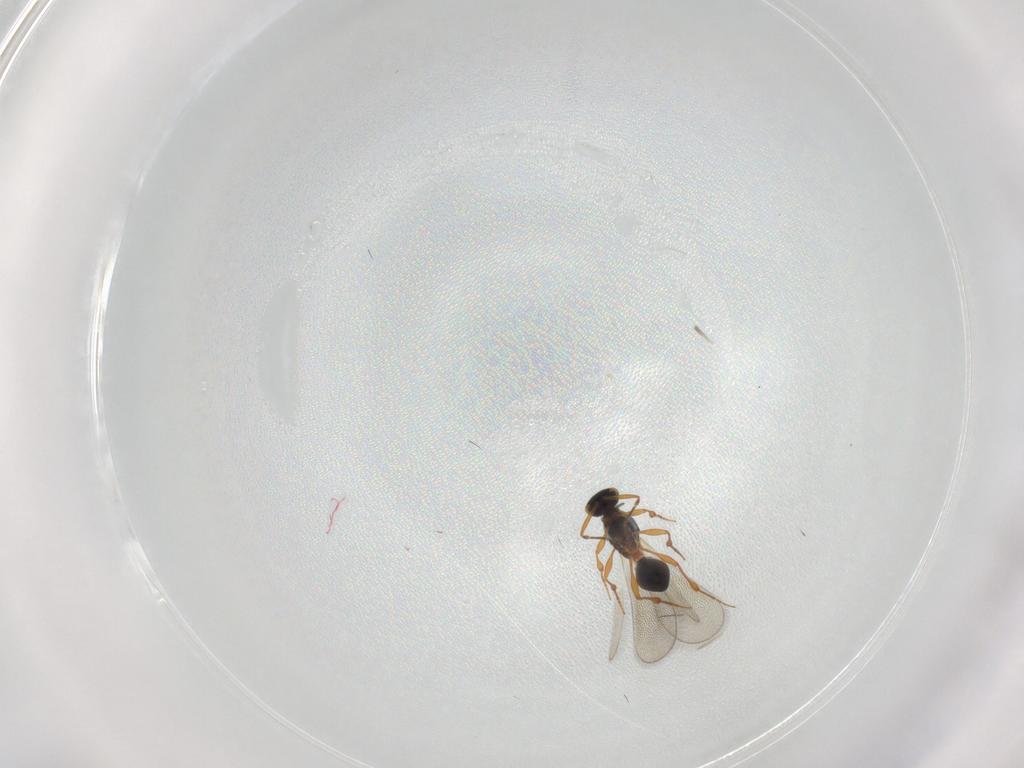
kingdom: Animalia
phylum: Arthropoda
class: Insecta
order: Hymenoptera
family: Platygastridae
